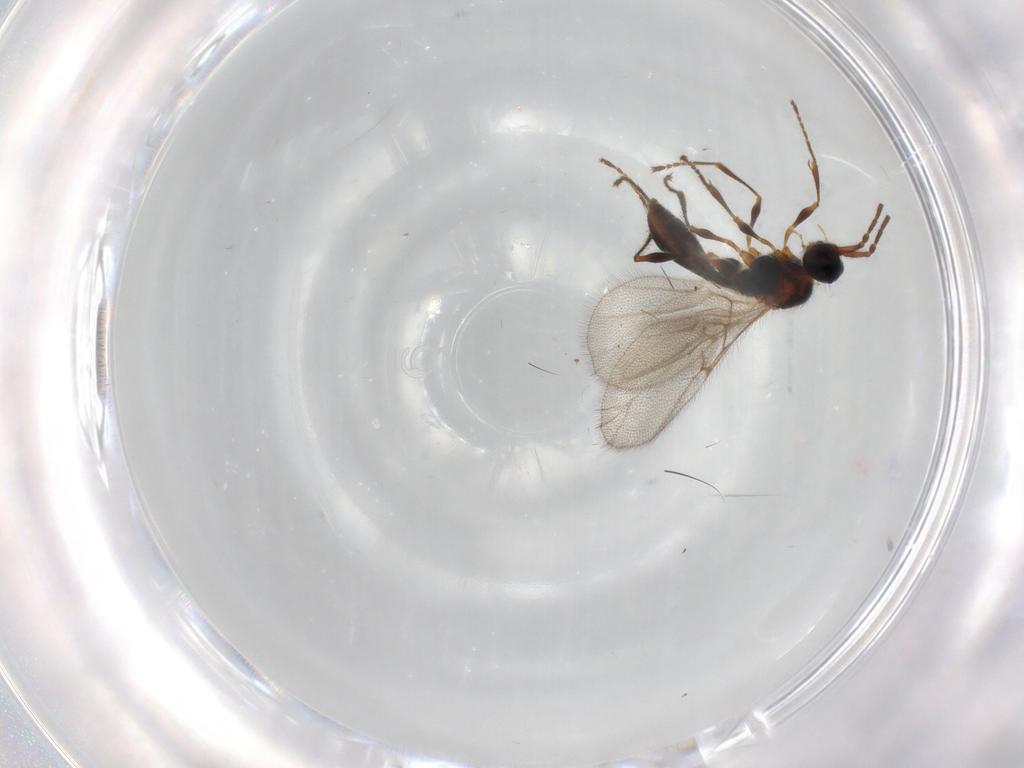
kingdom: Animalia
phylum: Arthropoda
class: Insecta
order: Hymenoptera
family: Diapriidae
